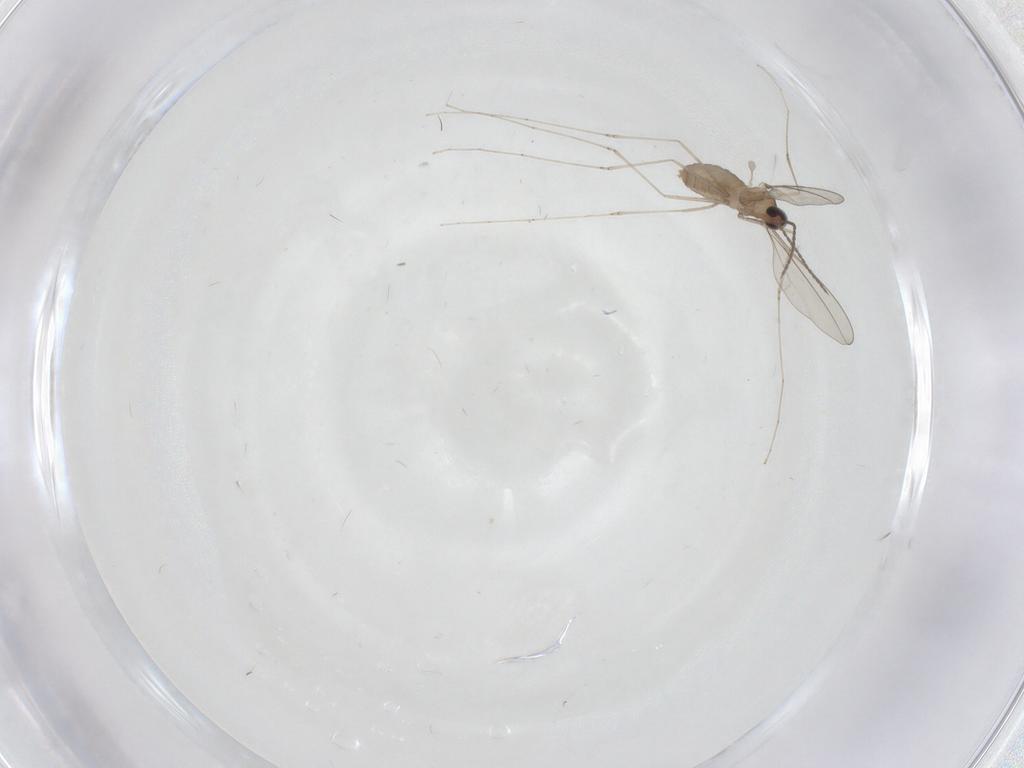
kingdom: Animalia
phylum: Arthropoda
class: Insecta
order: Diptera
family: Cecidomyiidae
